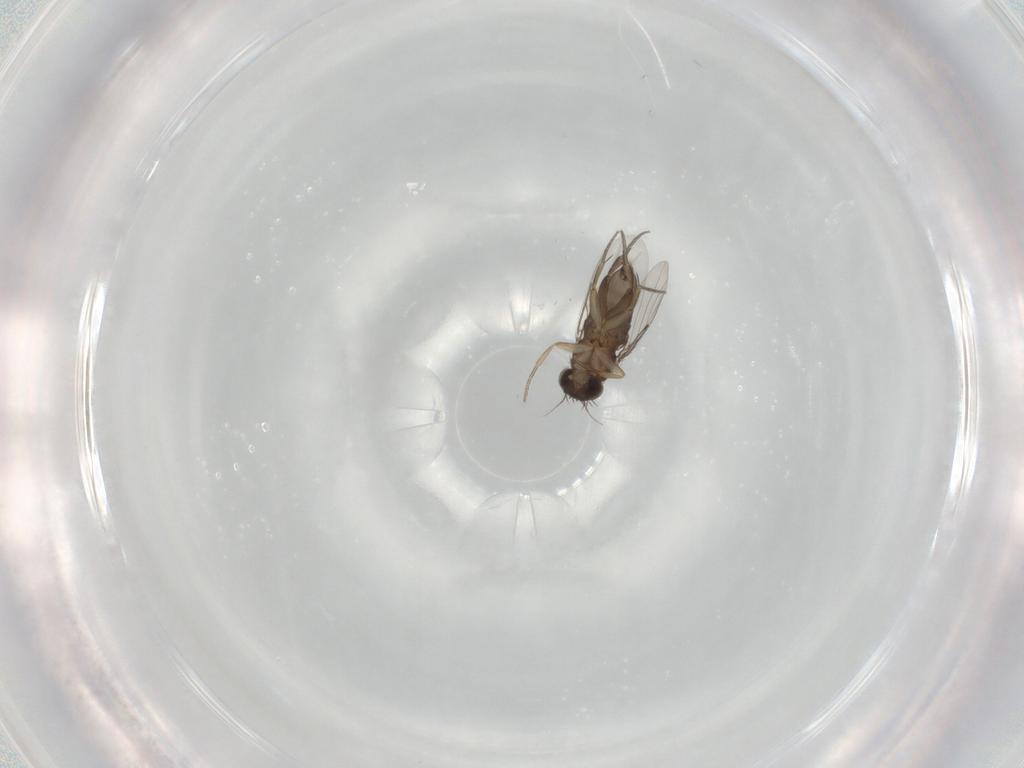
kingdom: Animalia
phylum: Arthropoda
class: Insecta
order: Diptera
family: Phoridae
